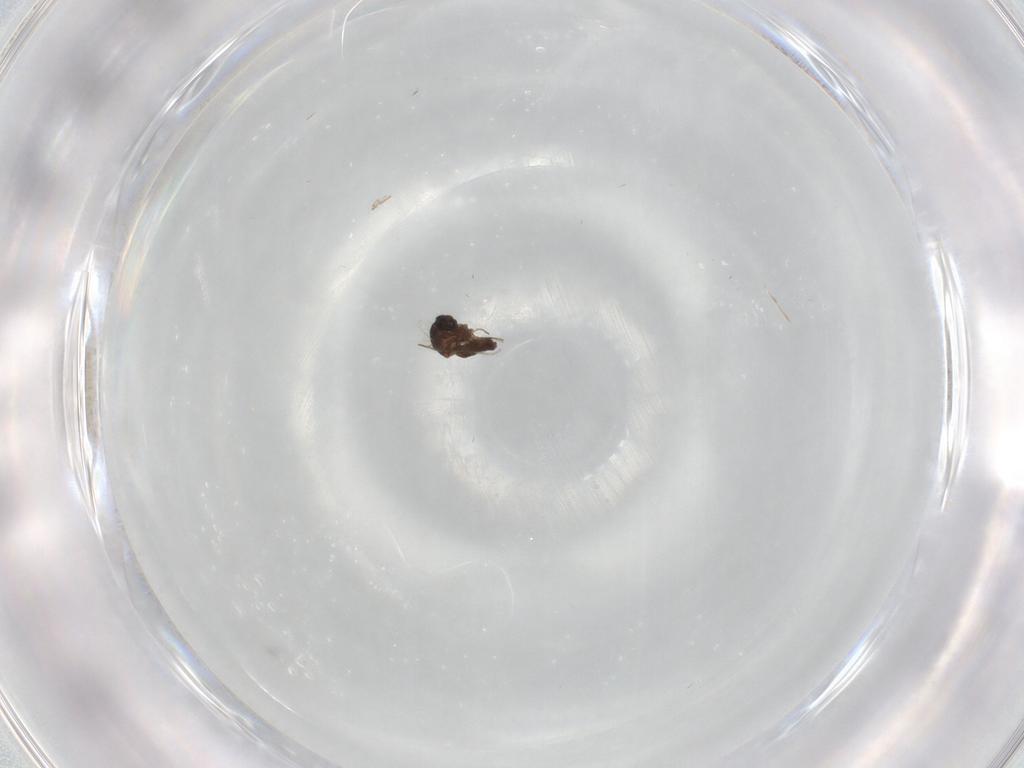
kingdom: Animalia
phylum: Arthropoda
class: Insecta
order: Diptera
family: Ceratopogonidae
